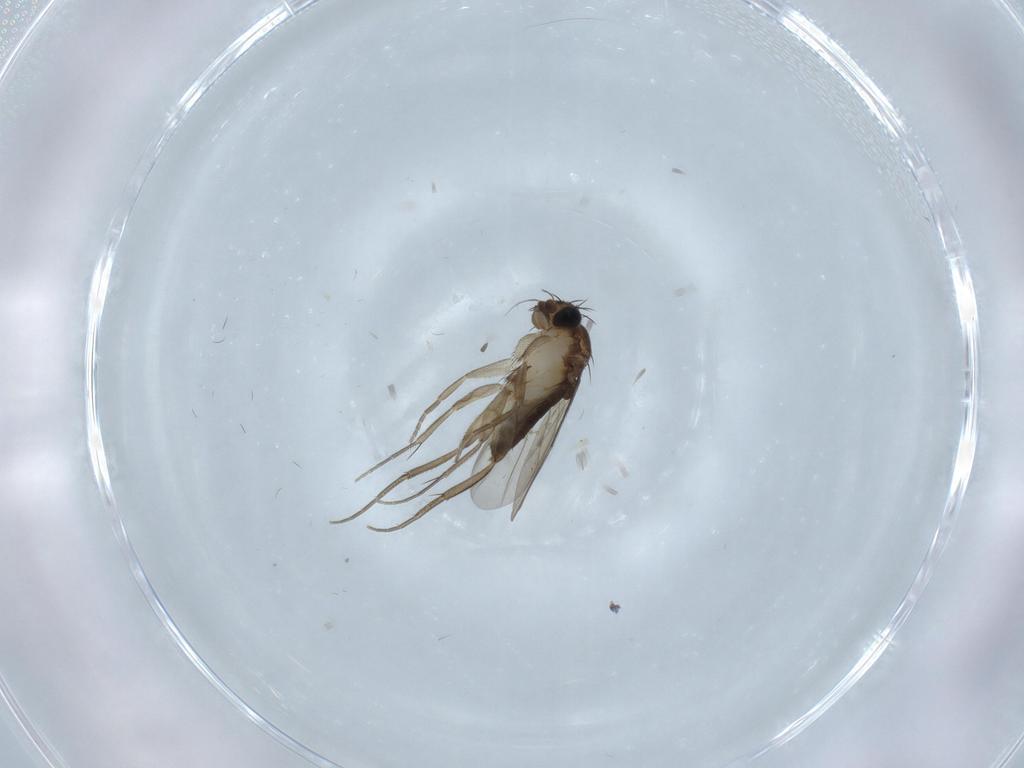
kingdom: Animalia
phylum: Arthropoda
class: Insecta
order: Diptera
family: Phoridae
